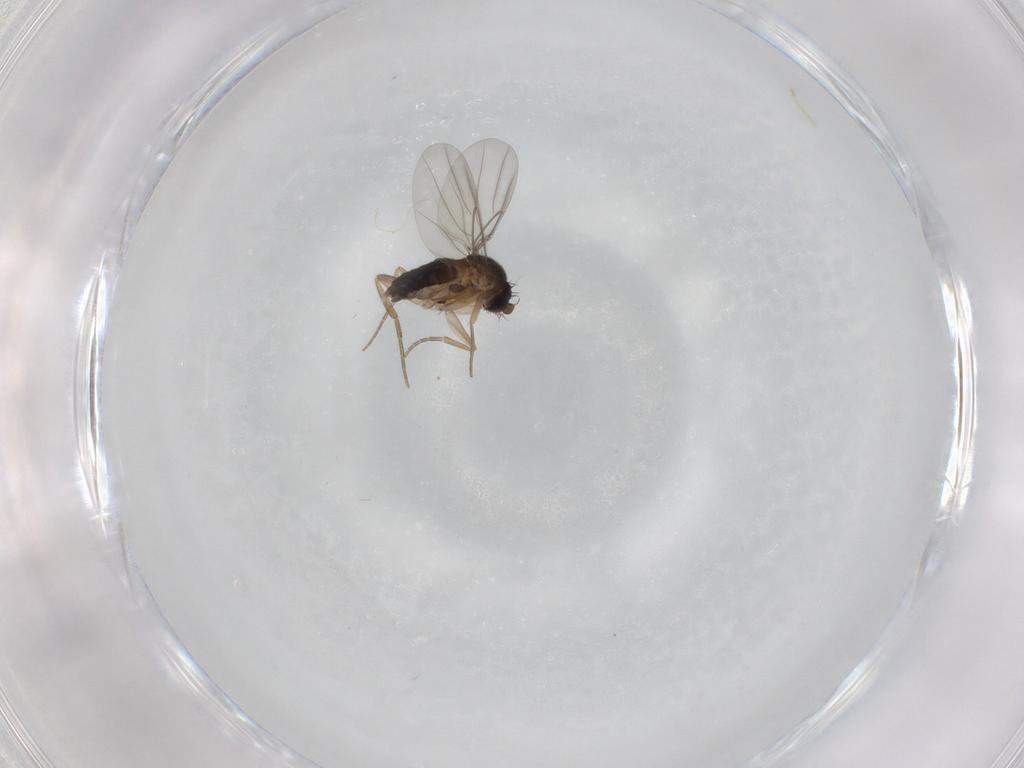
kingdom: Animalia
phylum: Arthropoda
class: Insecta
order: Diptera
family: Phoridae
